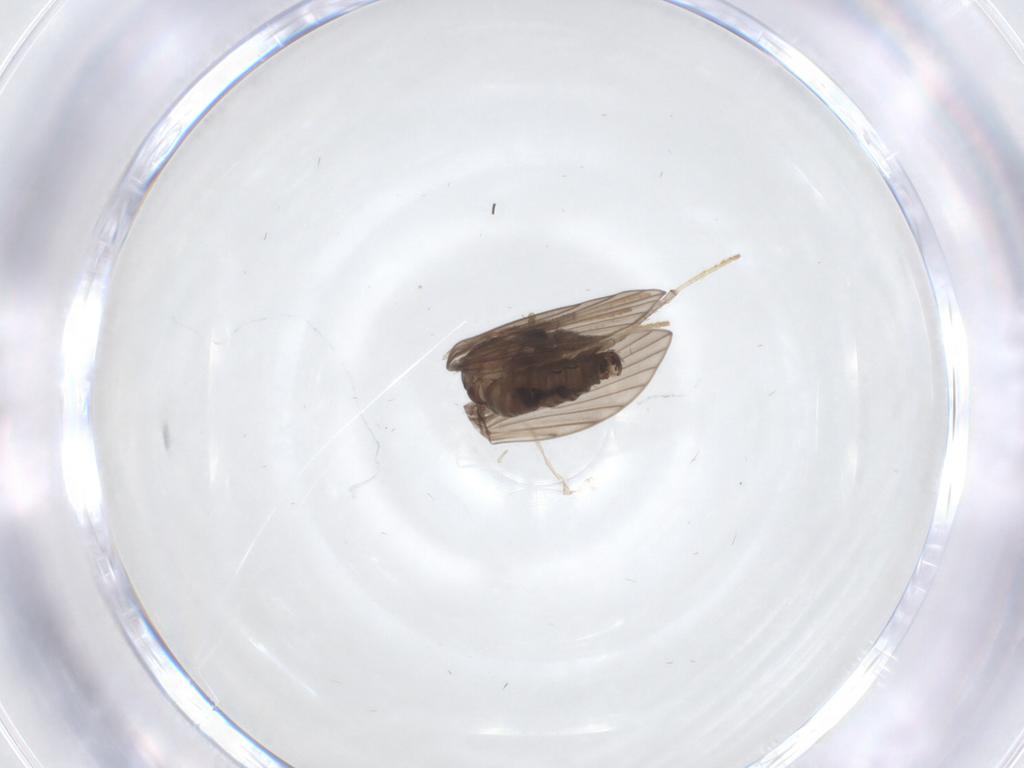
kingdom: Animalia
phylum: Arthropoda
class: Insecta
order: Diptera
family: Psychodidae
